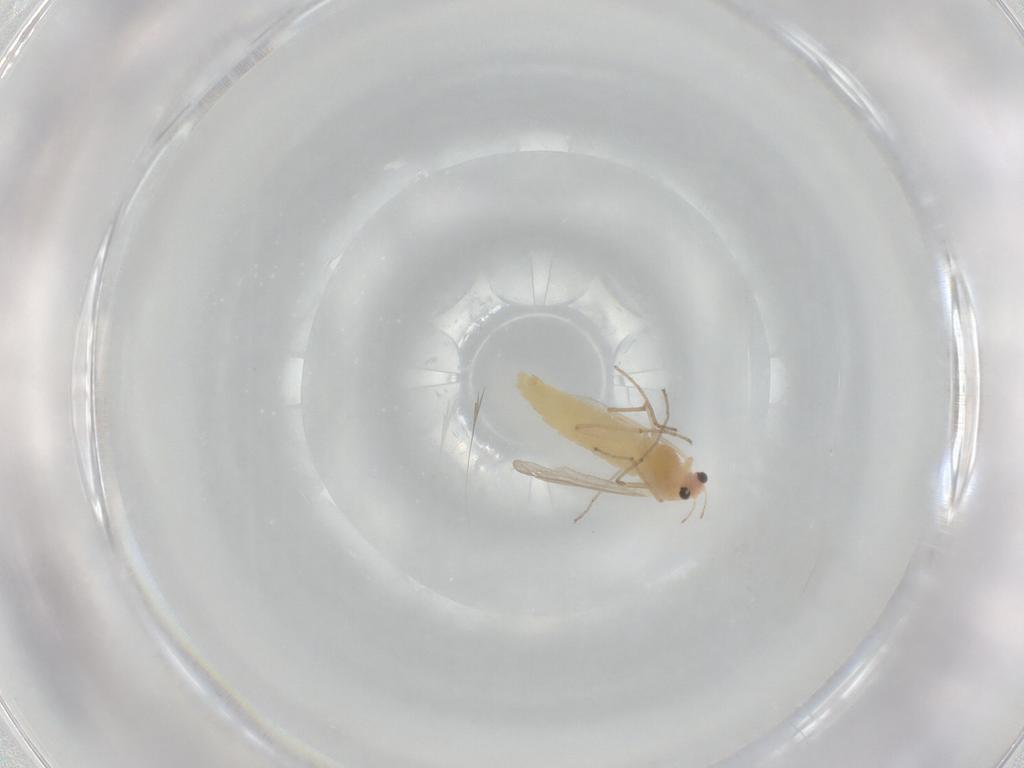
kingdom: Animalia
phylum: Arthropoda
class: Insecta
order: Diptera
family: Chironomidae
